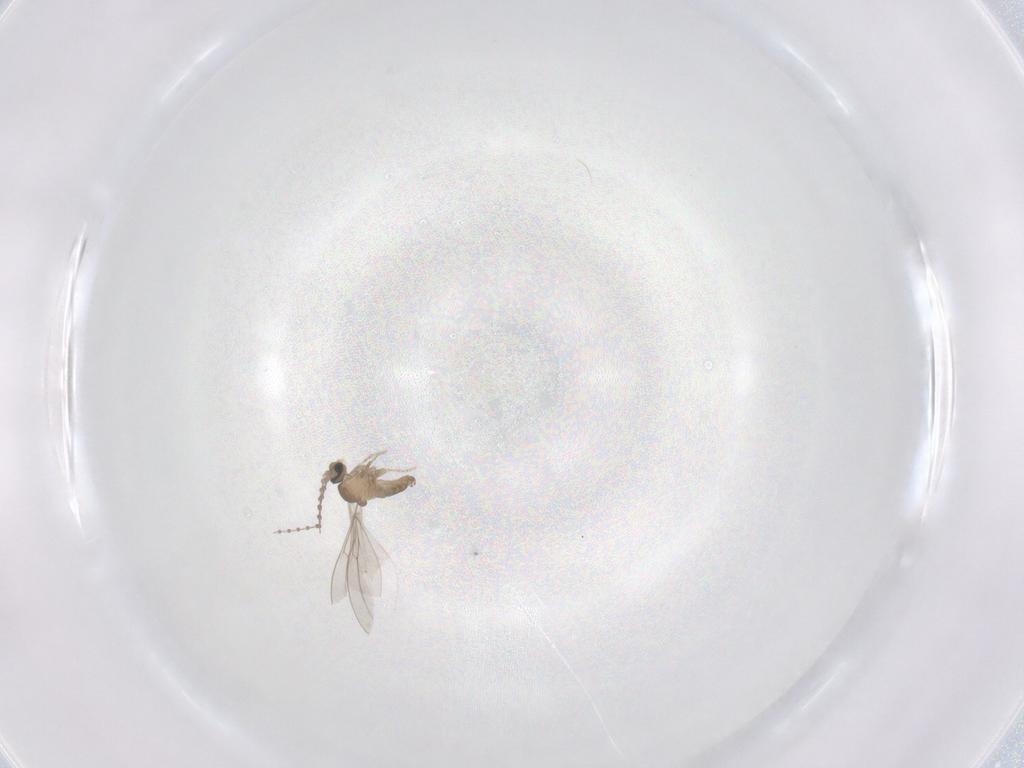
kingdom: Animalia
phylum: Arthropoda
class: Insecta
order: Diptera
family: Cecidomyiidae
